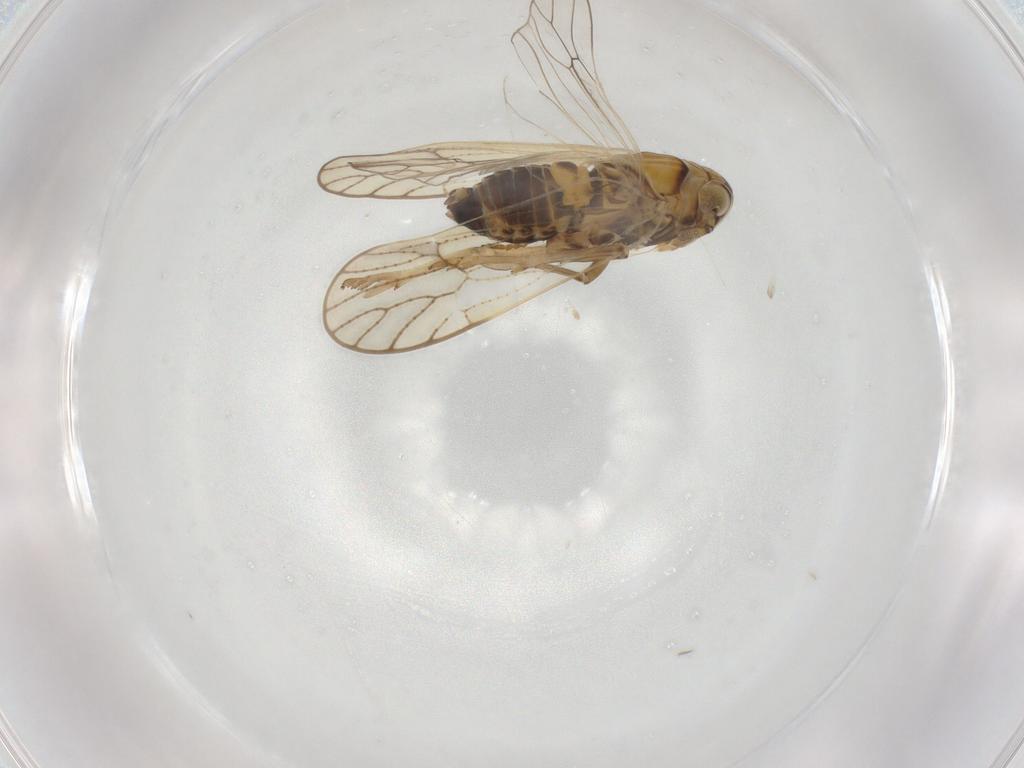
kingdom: Animalia
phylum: Arthropoda
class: Insecta
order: Hemiptera
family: Delphacidae
